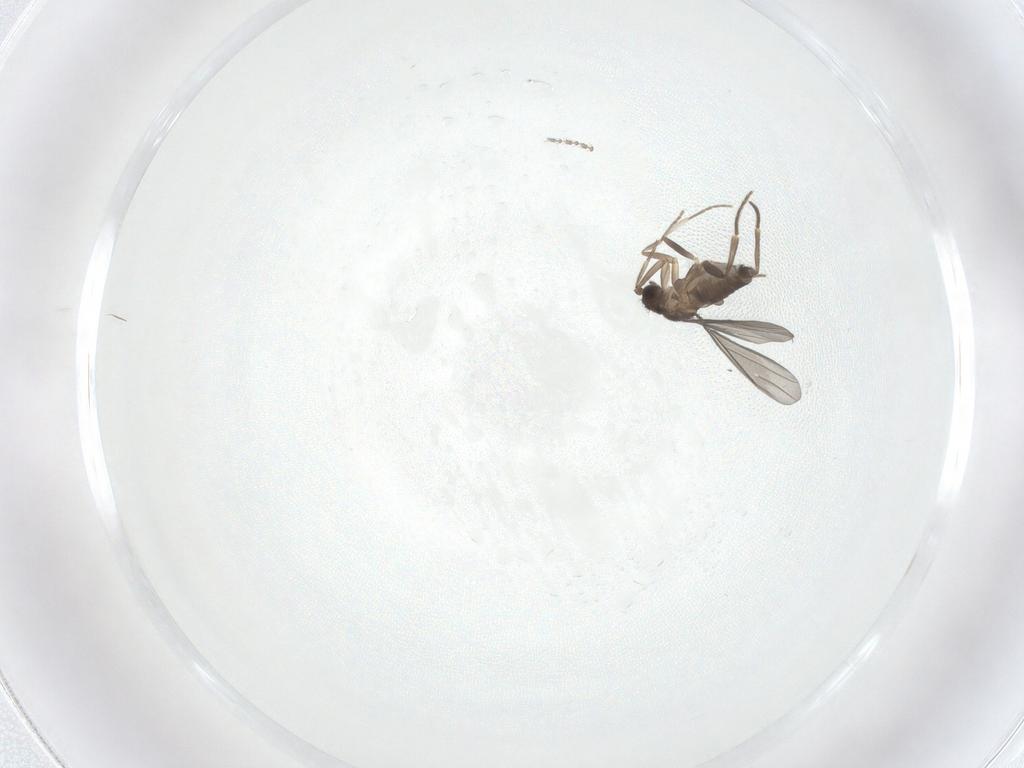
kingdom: Animalia
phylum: Arthropoda
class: Insecta
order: Diptera
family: Cecidomyiidae
